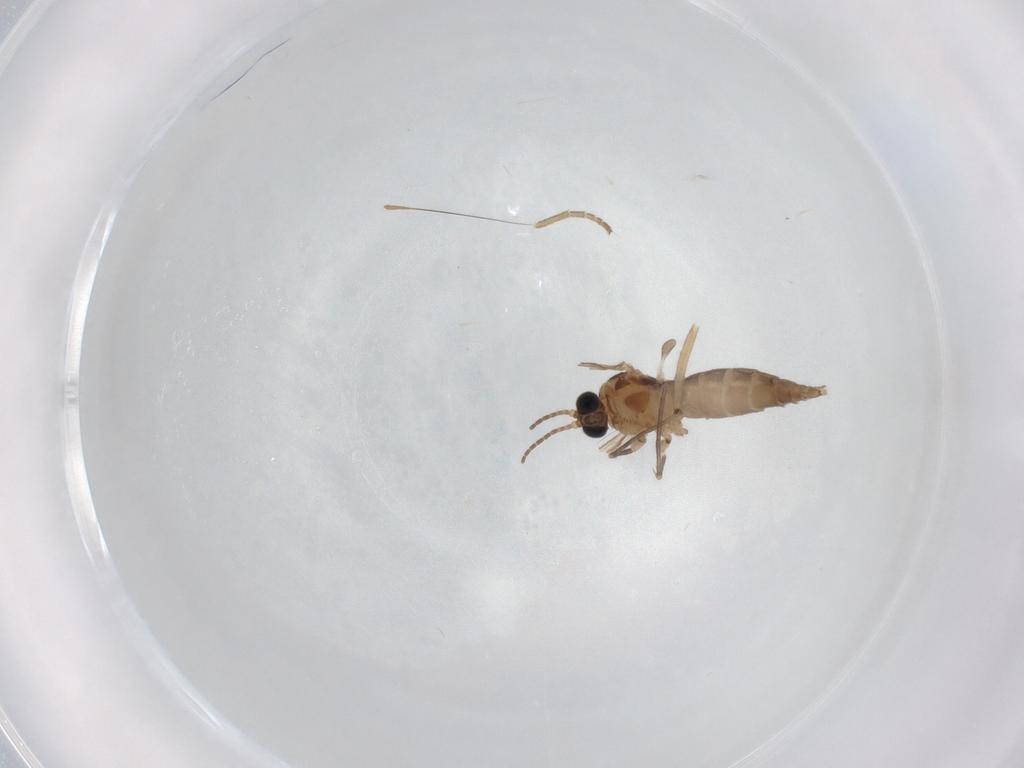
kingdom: Animalia
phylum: Arthropoda
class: Insecta
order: Diptera
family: Sciaridae
